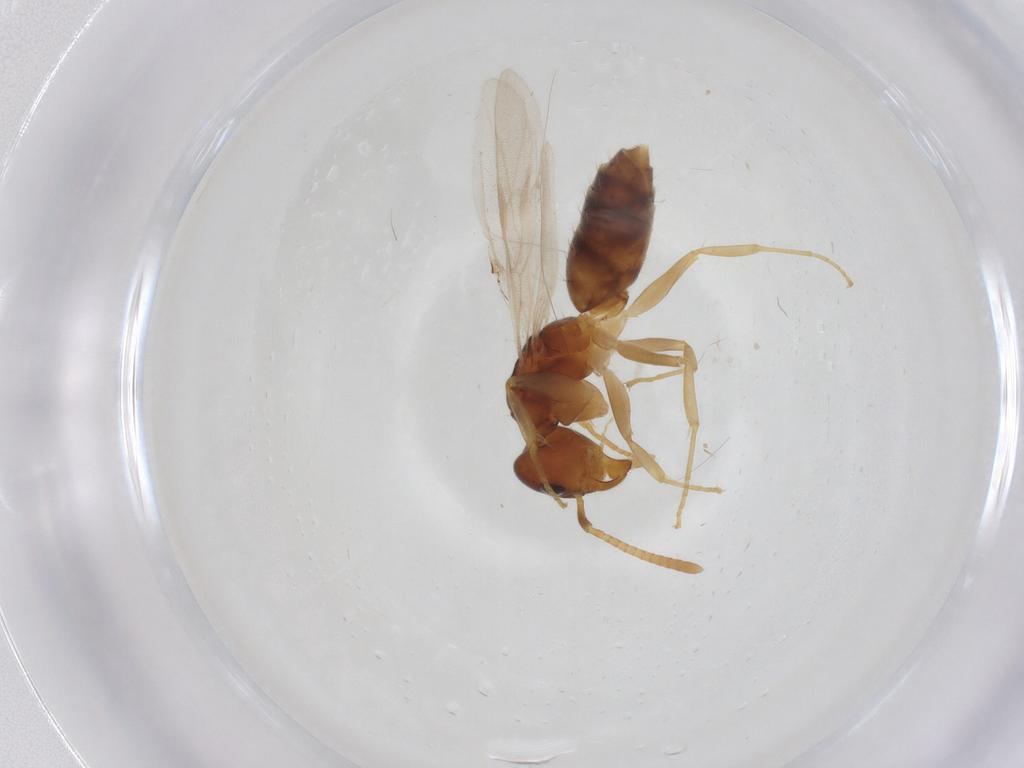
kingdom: Animalia
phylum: Arthropoda
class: Insecta
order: Hymenoptera
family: Formicidae
